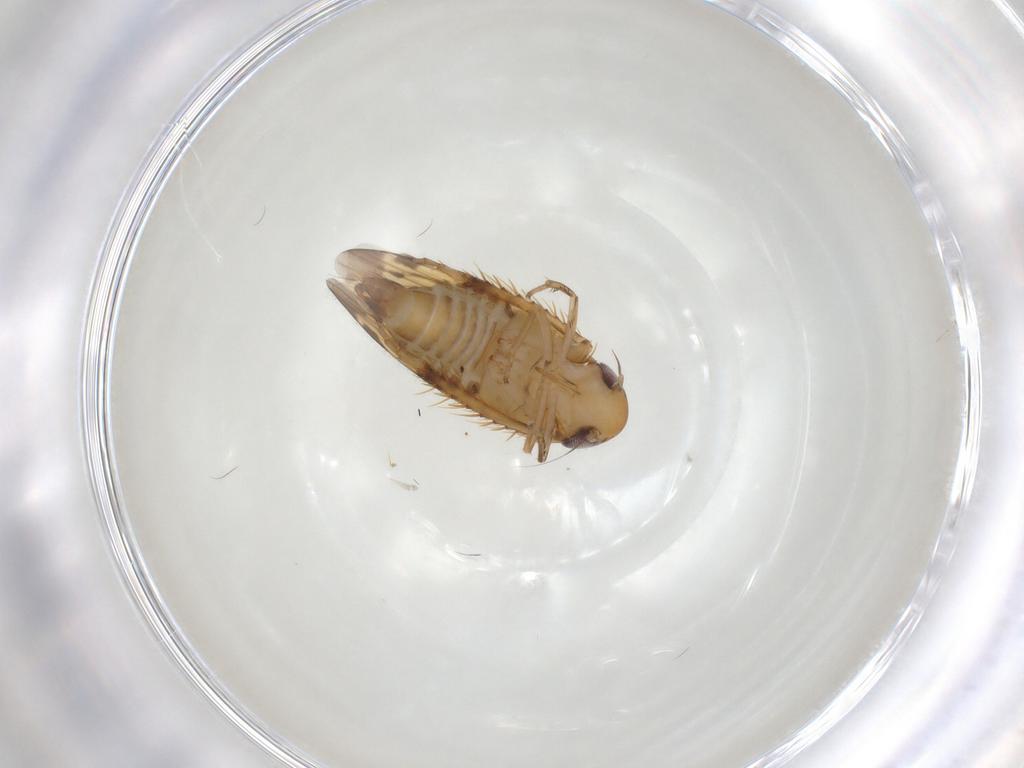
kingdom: Animalia
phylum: Arthropoda
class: Insecta
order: Hemiptera
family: Cicadellidae
